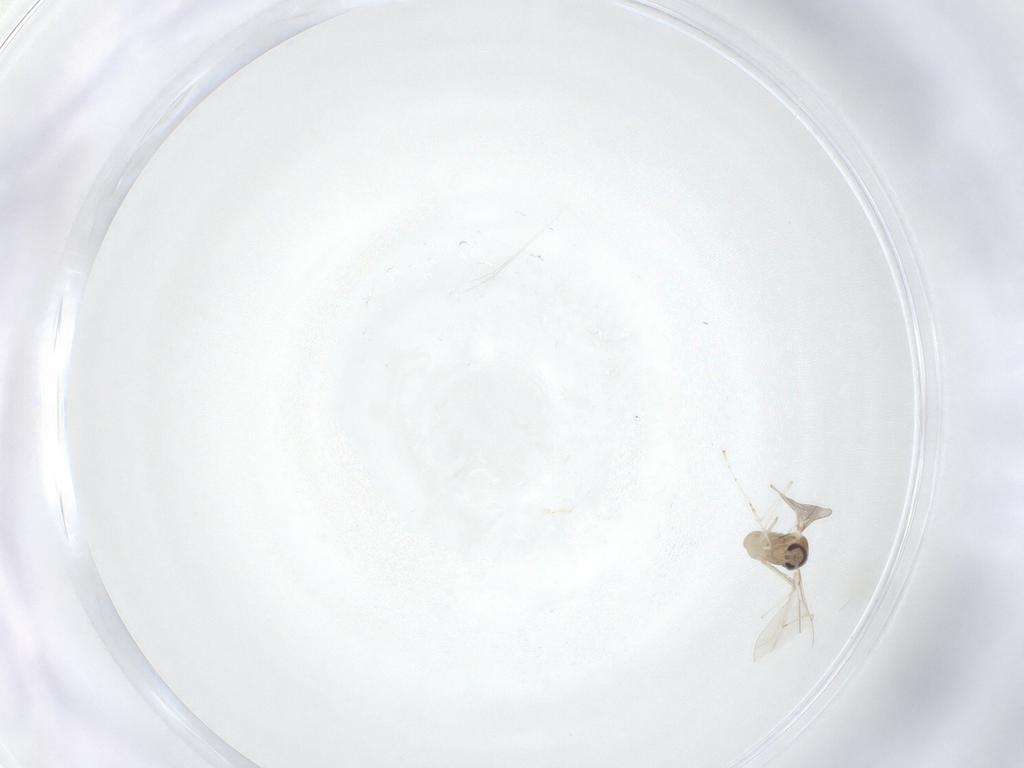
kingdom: Animalia
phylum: Arthropoda
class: Insecta
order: Diptera
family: Cecidomyiidae
